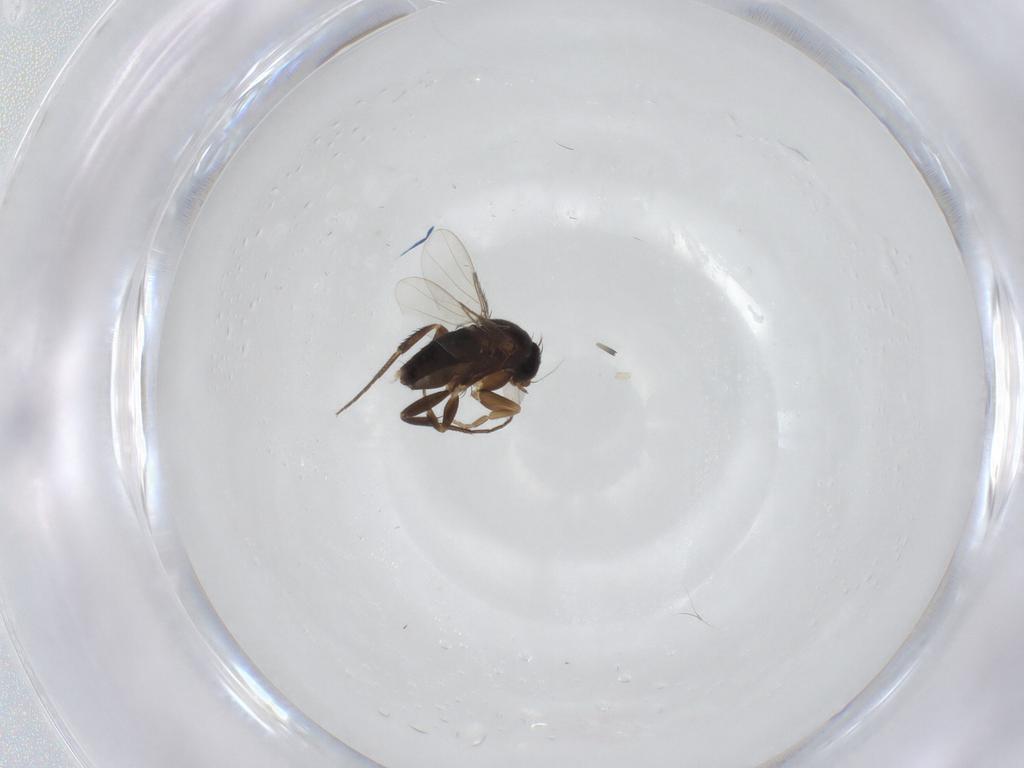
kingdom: Animalia
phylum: Arthropoda
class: Insecta
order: Diptera
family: Phoridae
